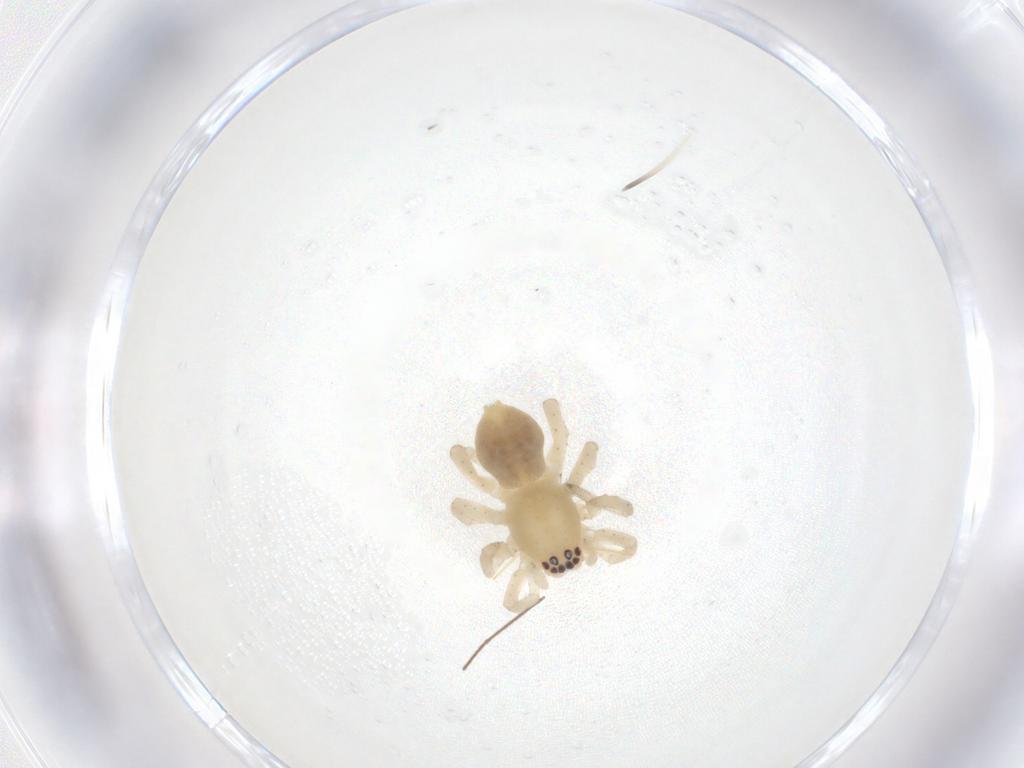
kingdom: Animalia
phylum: Arthropoda
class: Arachnida
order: Araneae
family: Clubionidae
